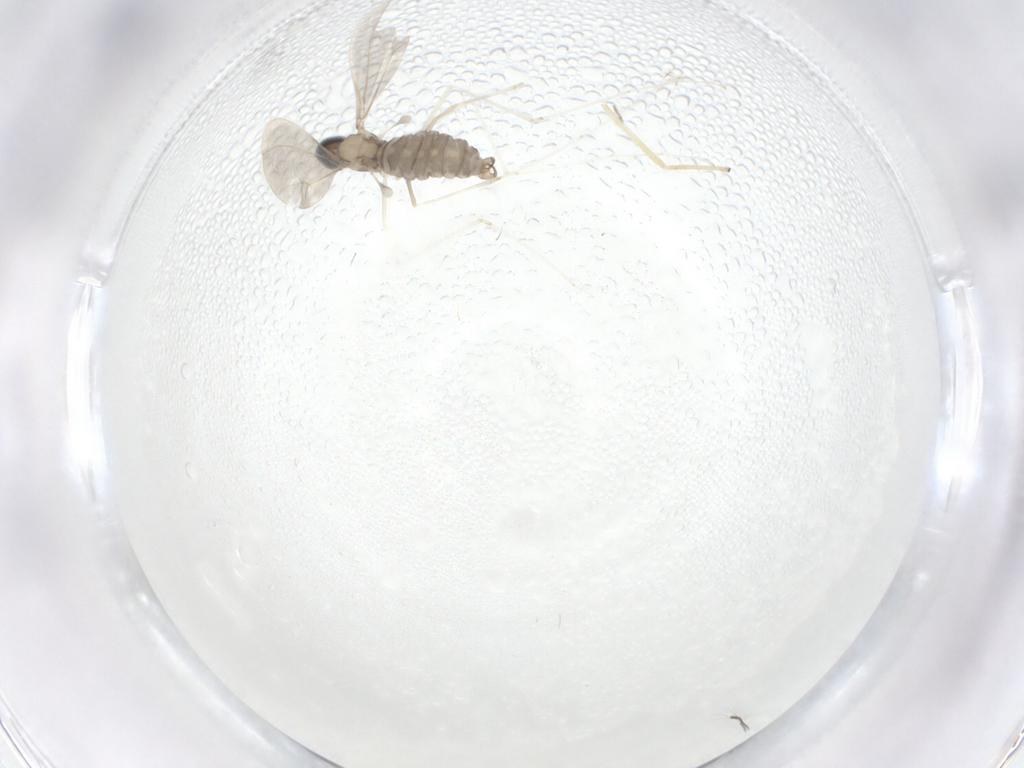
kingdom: Animalia
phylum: Arthropoda
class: Insecta
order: Diptera
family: Cecidomyiidae
